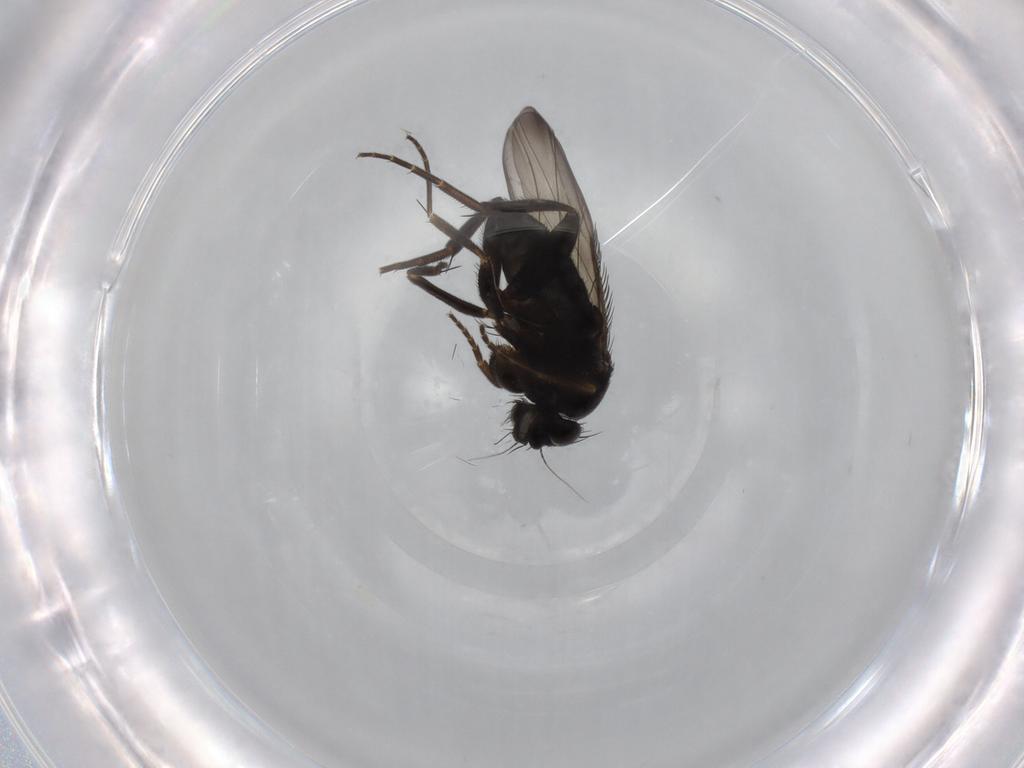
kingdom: Animalia
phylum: Arthropoda
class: Insecta
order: Diptera
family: Phoridae
